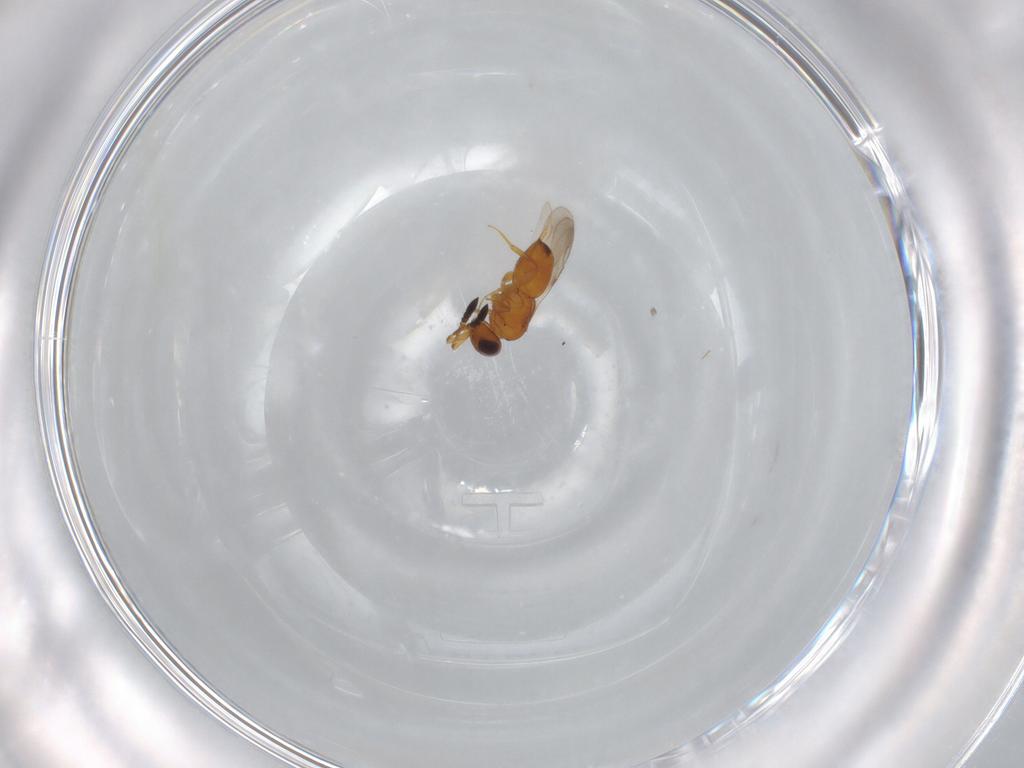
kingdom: Animalia
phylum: Arthropoda
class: Insecta
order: Hymenoptera
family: Ceraphronidae
